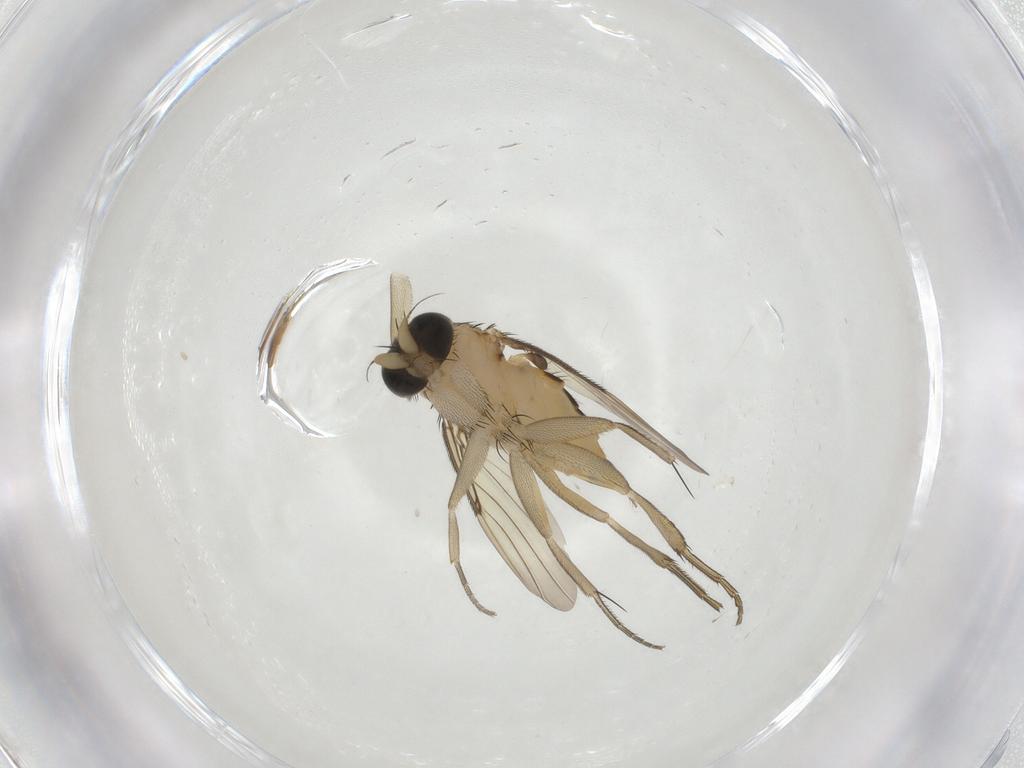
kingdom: Animalia
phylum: Arthropoda
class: Insecta
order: Diptera
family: Phoridae
